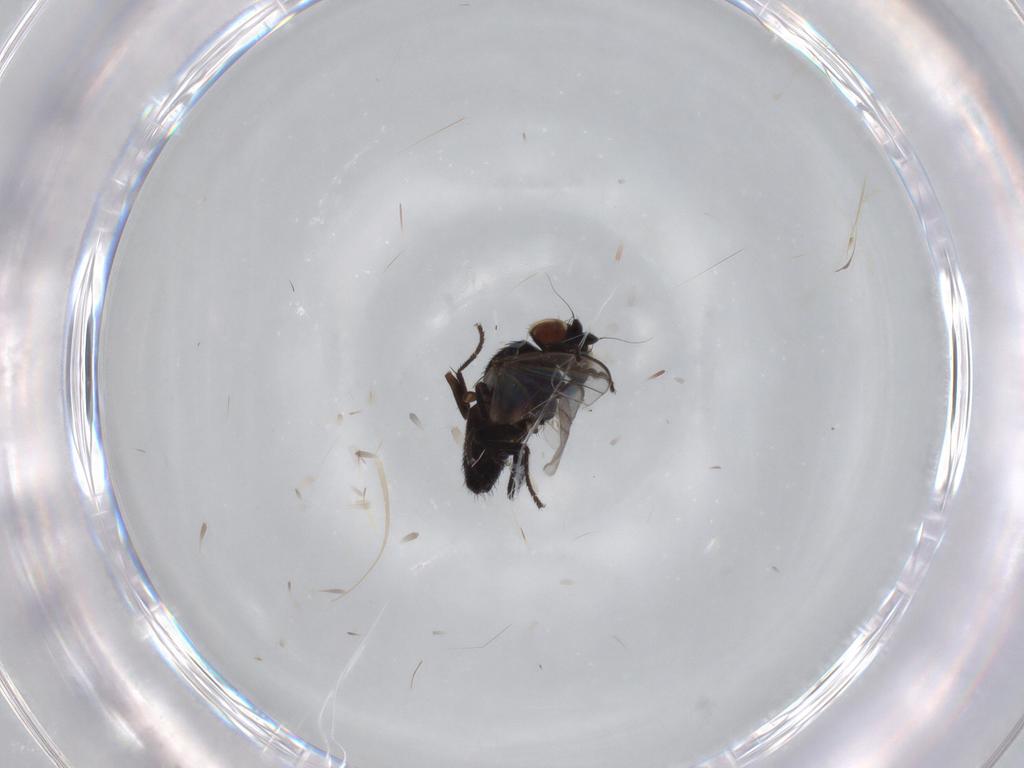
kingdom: Animalia
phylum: Arthropoda
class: Insecta
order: Diptera
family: Milichiidae
